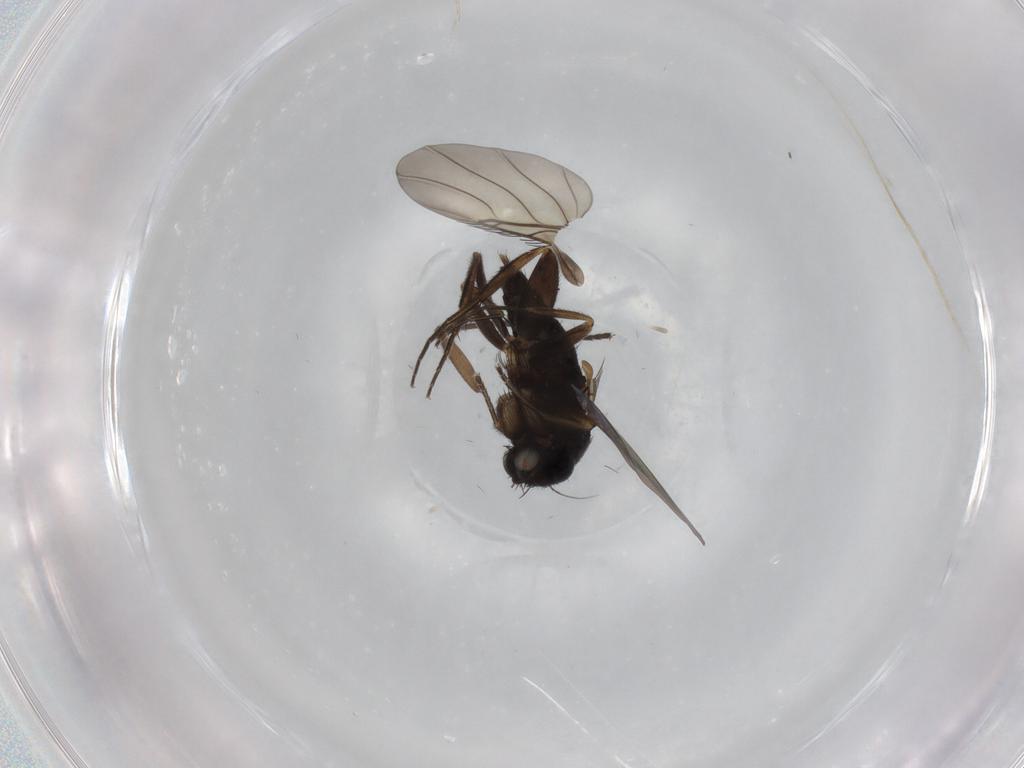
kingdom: Animalia
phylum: Arthropoda
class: Insecta
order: Diptera
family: Phoridae
